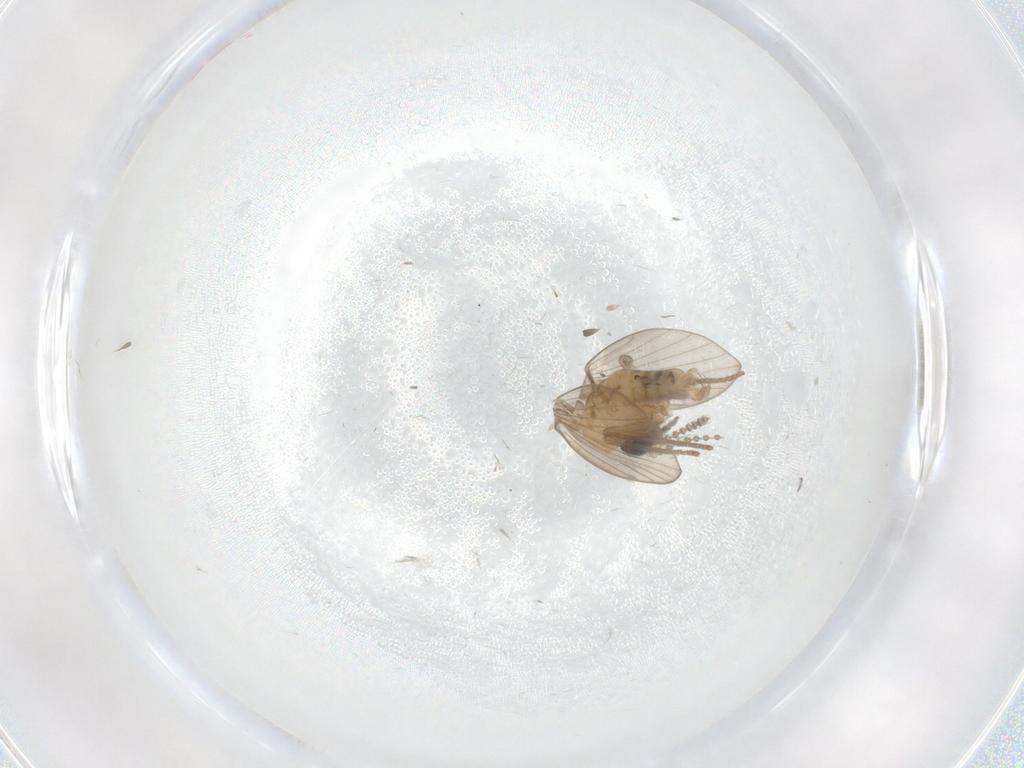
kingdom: Animalia
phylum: Arthropoda
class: Insecta
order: Diptera
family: Psychodidae
